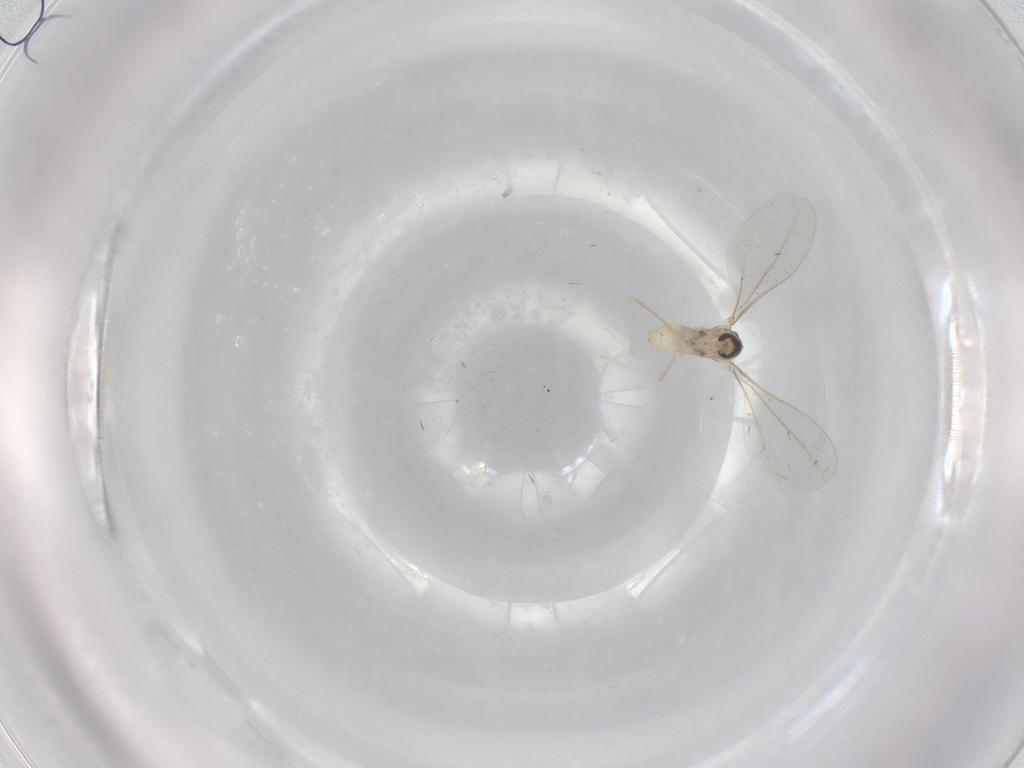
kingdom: Animalia
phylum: Arthropoda
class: Insecta
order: Diptera
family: Cecidomyiidae
